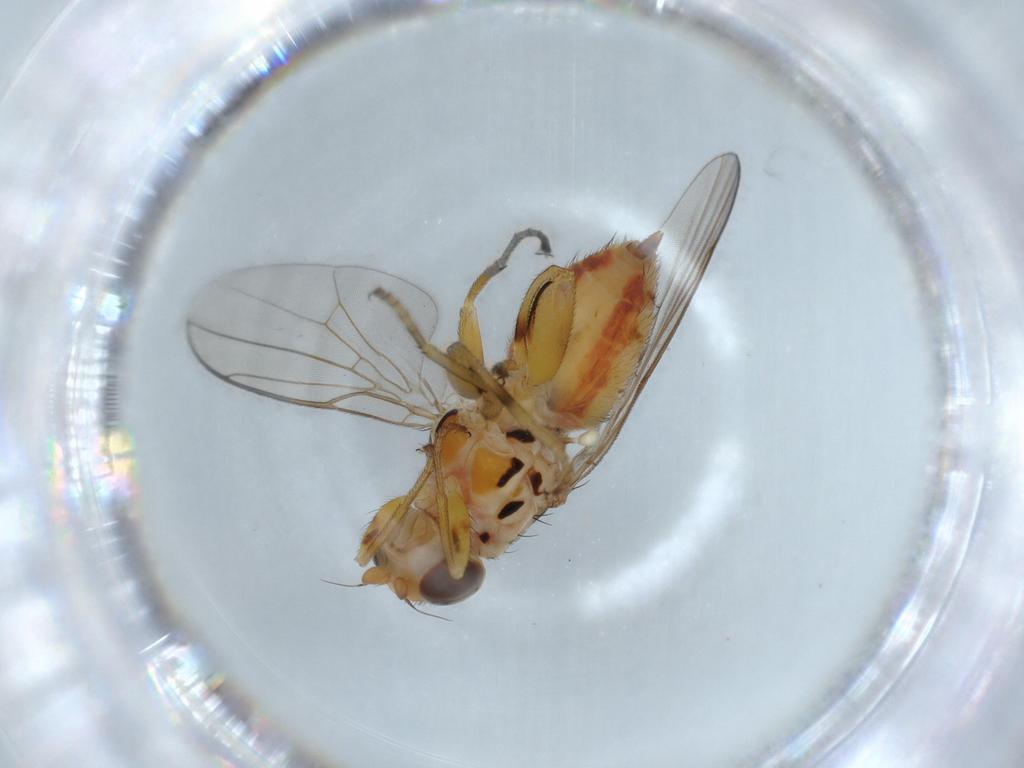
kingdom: Animalia
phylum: Arthropoda
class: Insecta
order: Diptera
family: Chloropidae
